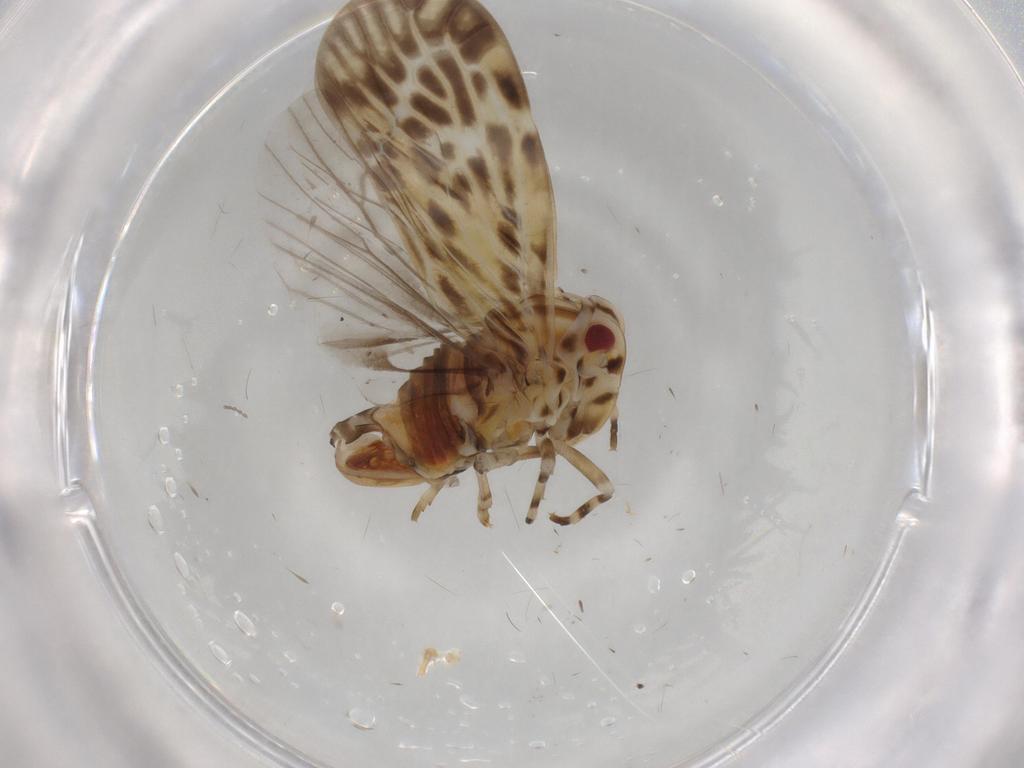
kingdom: Animalia
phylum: Arthropoda
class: Insecta
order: Hemiptera
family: Derbidae
